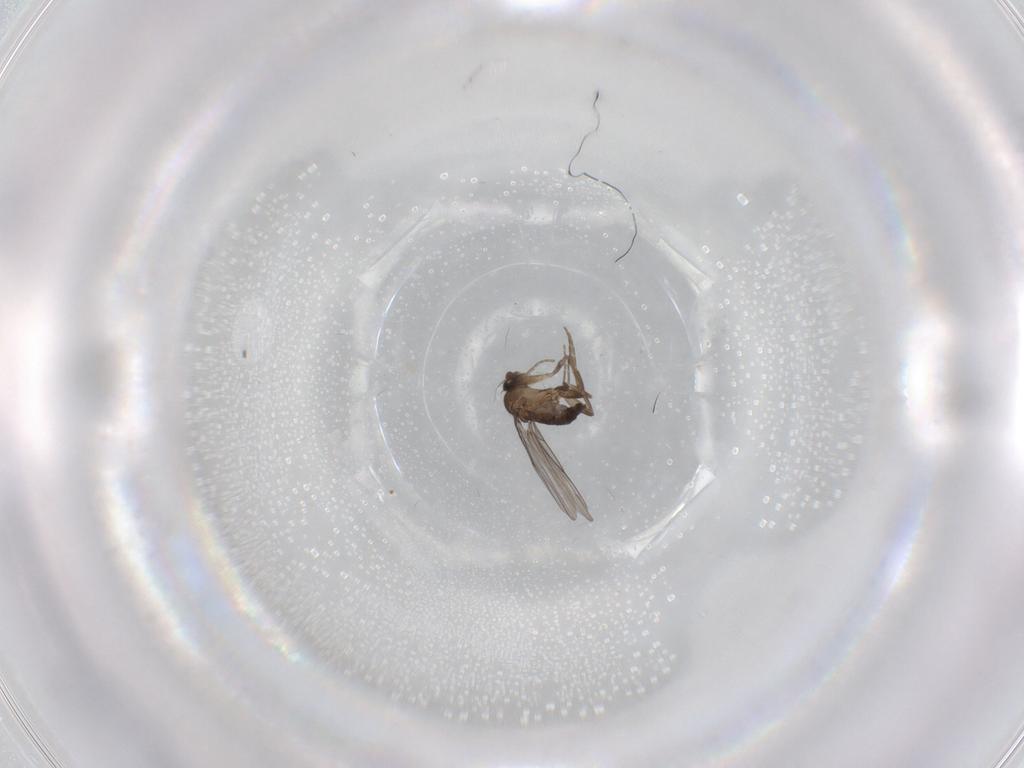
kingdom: Animalia
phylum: Arthropoda
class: Insecta
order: Diptera
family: Phoridae
